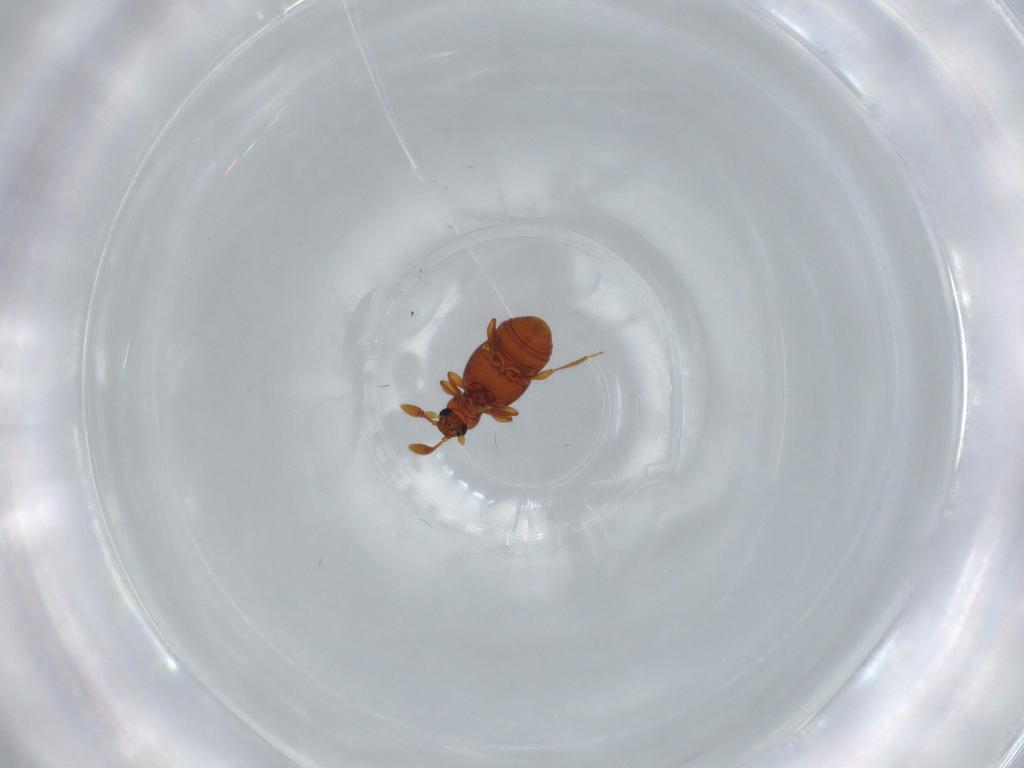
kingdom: Animalia
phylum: Arthropoda
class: Insecta
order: Coleoptera
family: Staphylinidae
